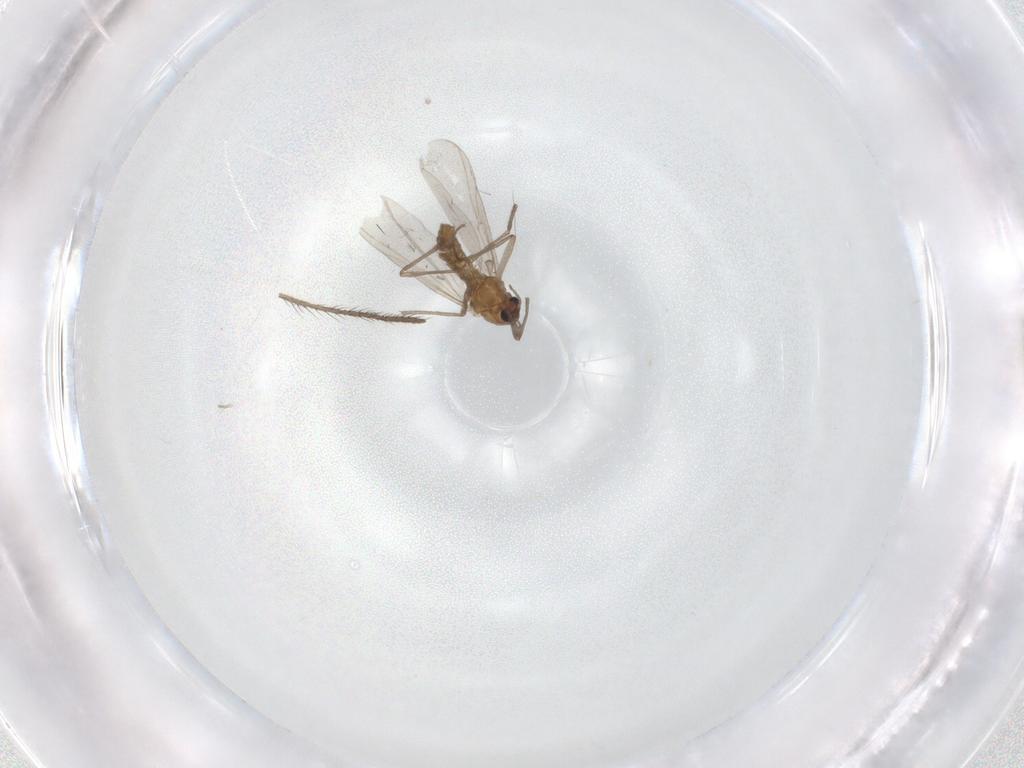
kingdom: Animalia
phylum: Arthropoda
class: Insecta
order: Diptera
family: Chironomidae
